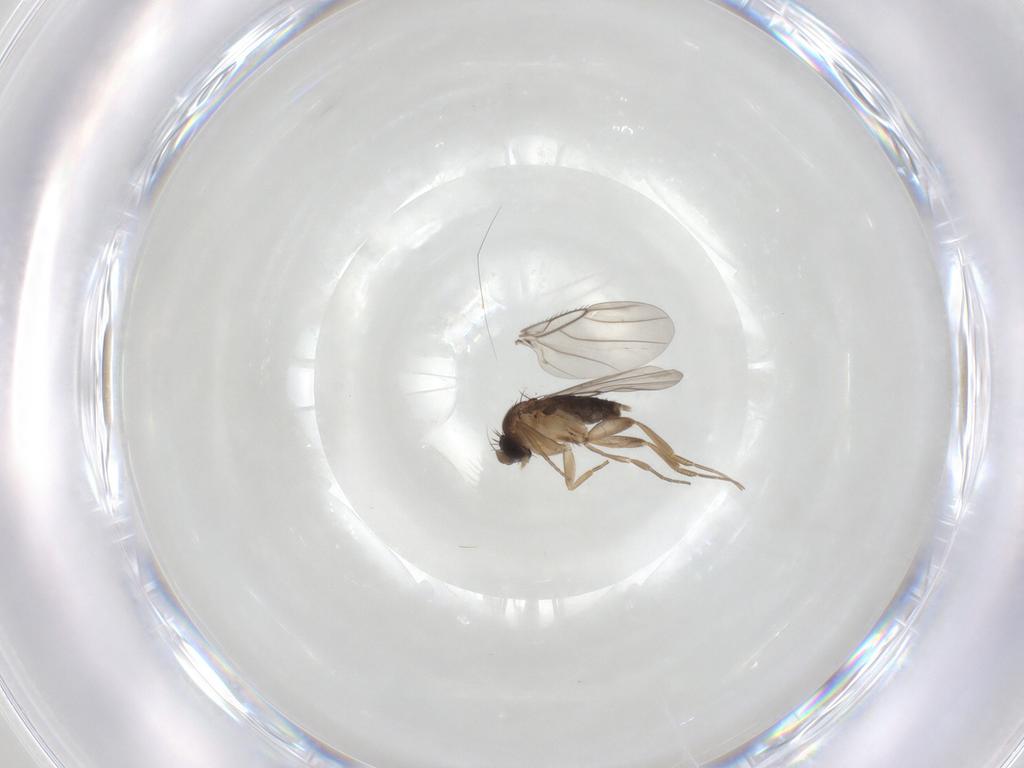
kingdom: Animalia
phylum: Arthropoda
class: Insecta
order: Diptera
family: Phoridae
